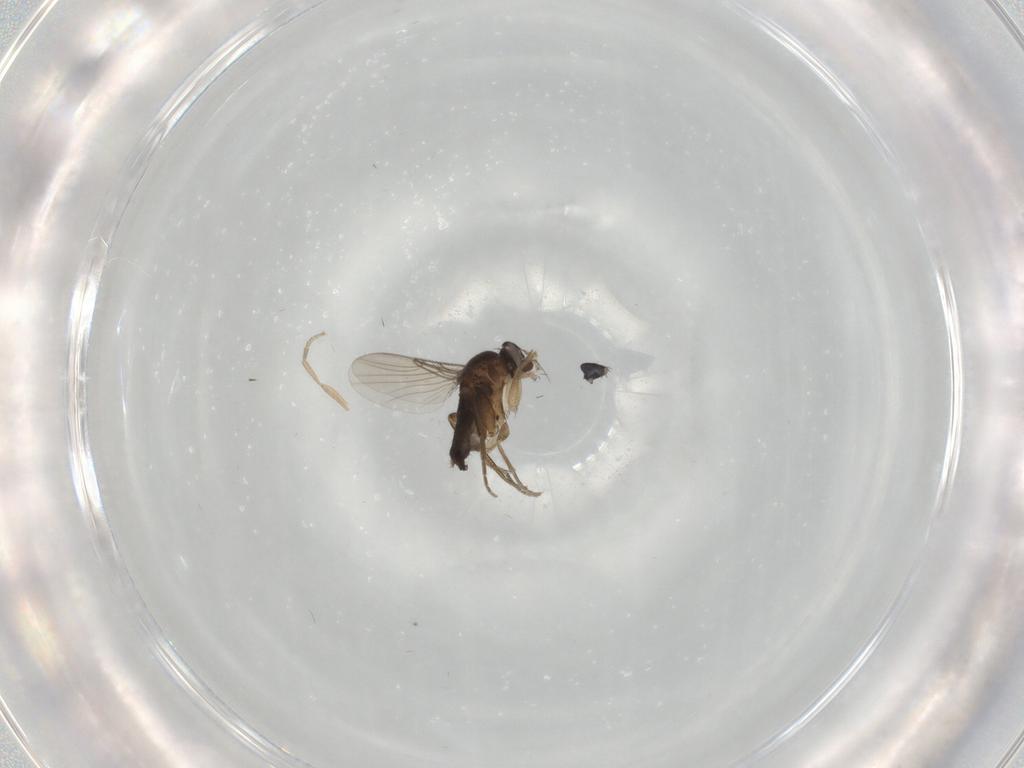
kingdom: Animalia
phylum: Arthropoda
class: Insecta
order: Diptera
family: Phoridae
